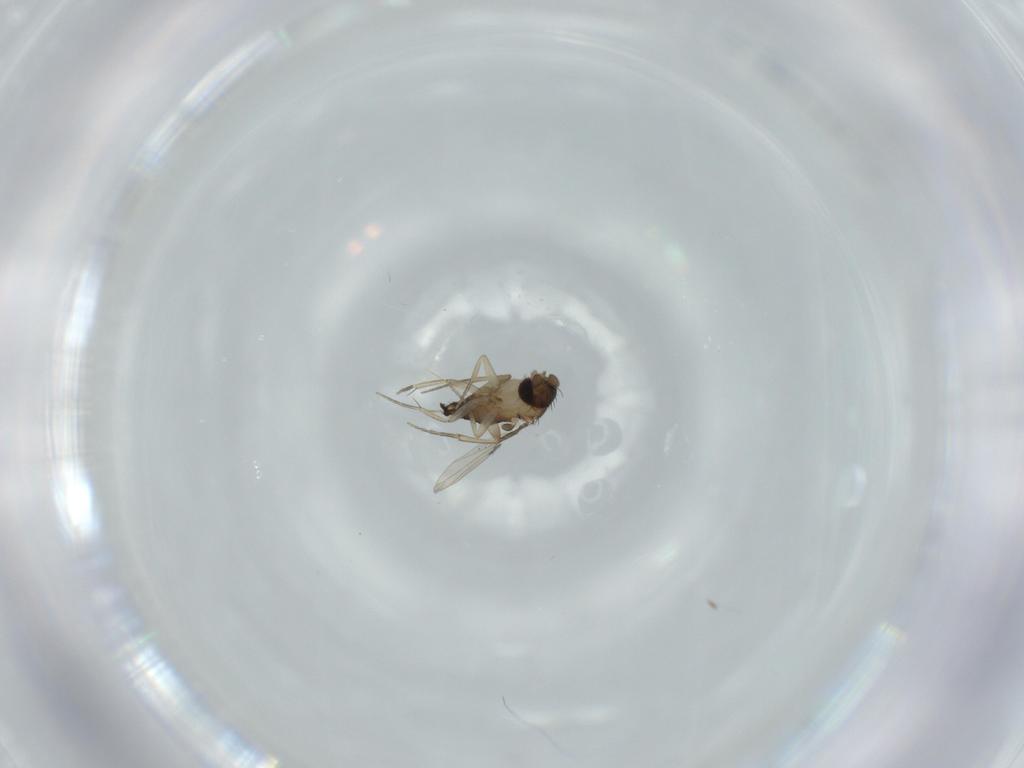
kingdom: Animalia
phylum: Arthropoda
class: Insecta
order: Diptera
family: Phoridae
